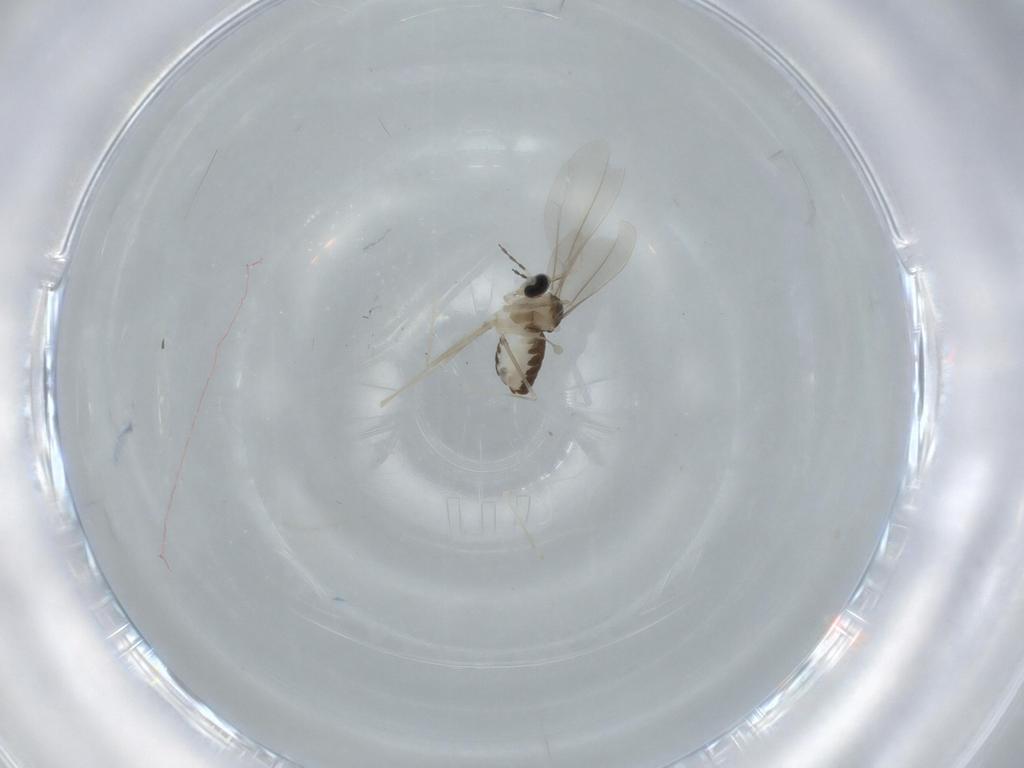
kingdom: Animalia
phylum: Arthropoda
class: Insecta
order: Diptera
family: Cecidomyiidae
